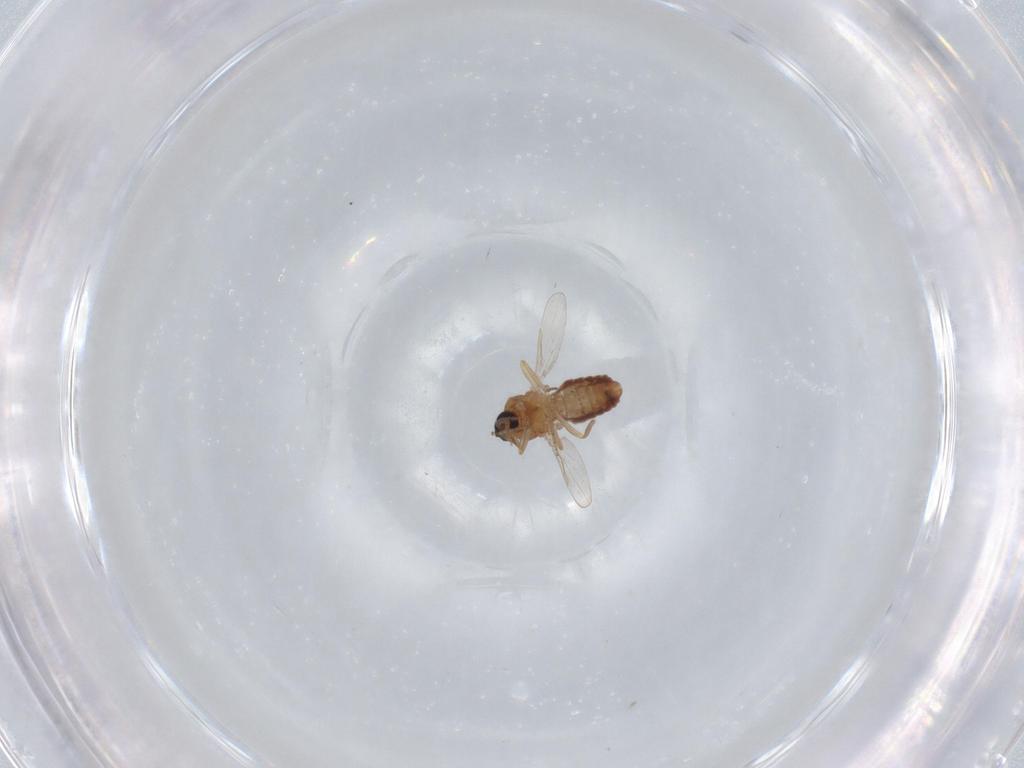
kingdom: Animalia
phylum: Arthropoda
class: Insecta
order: Diptera
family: Ceratopogonidae
